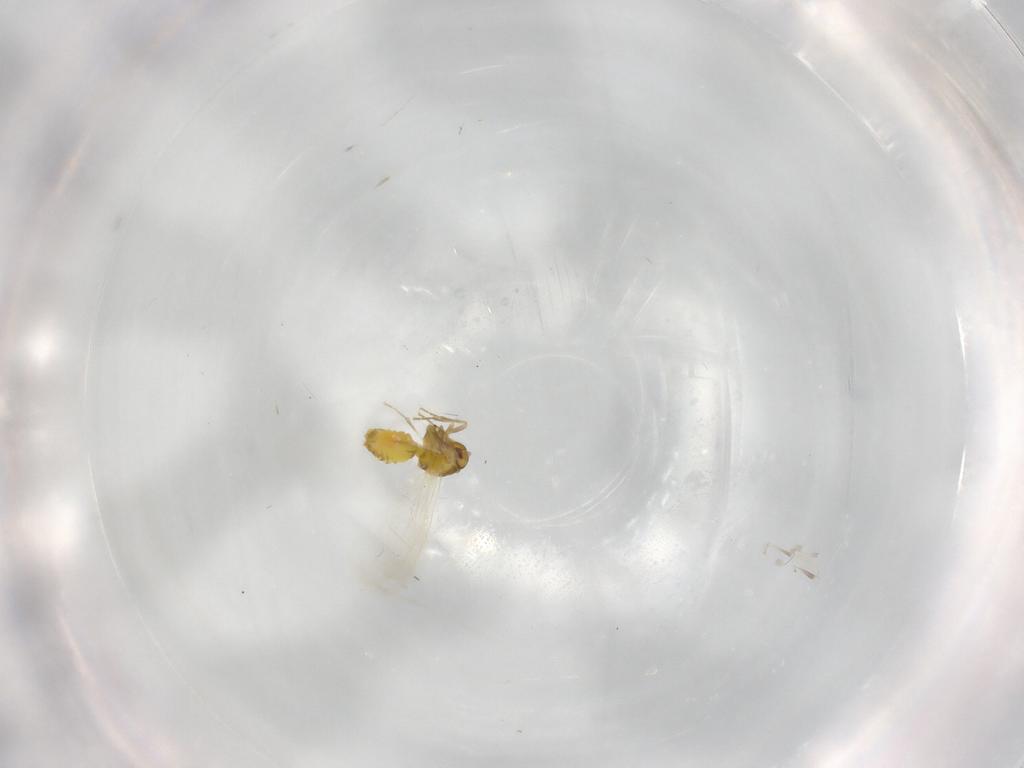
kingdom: Animalia
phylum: Arthropoda
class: Insecta
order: Hemiptera
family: Aleyrodidae
